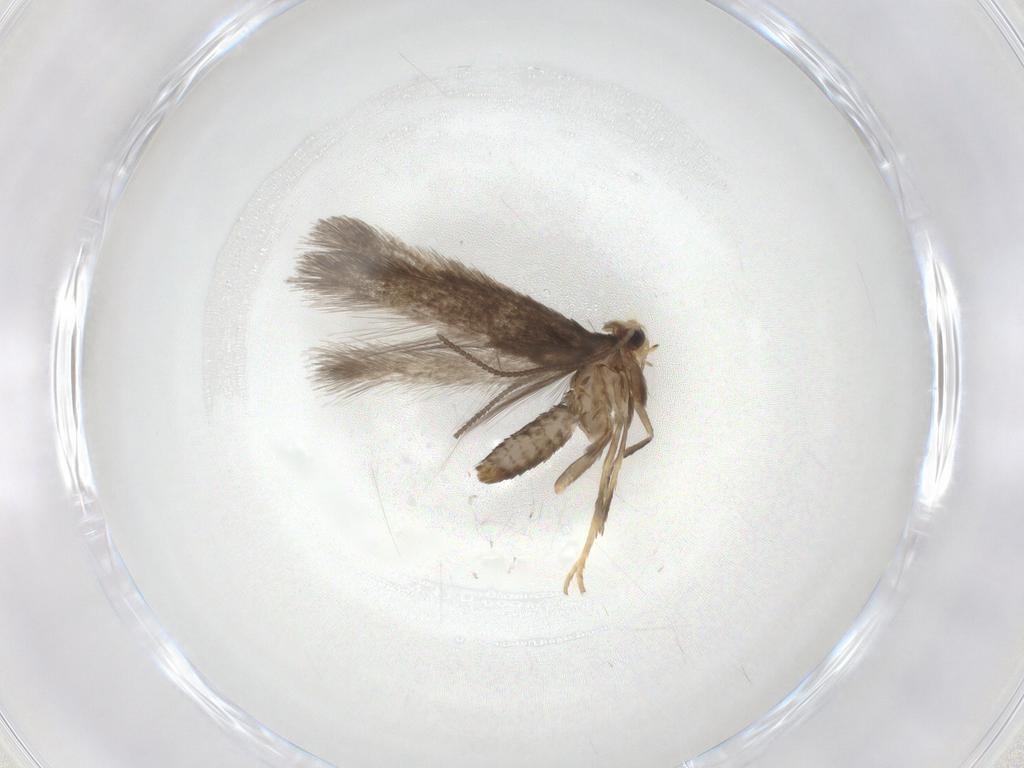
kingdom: Animalia
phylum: Arthropoda
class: Insecta
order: Lepidoptera
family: Nepticulidae
